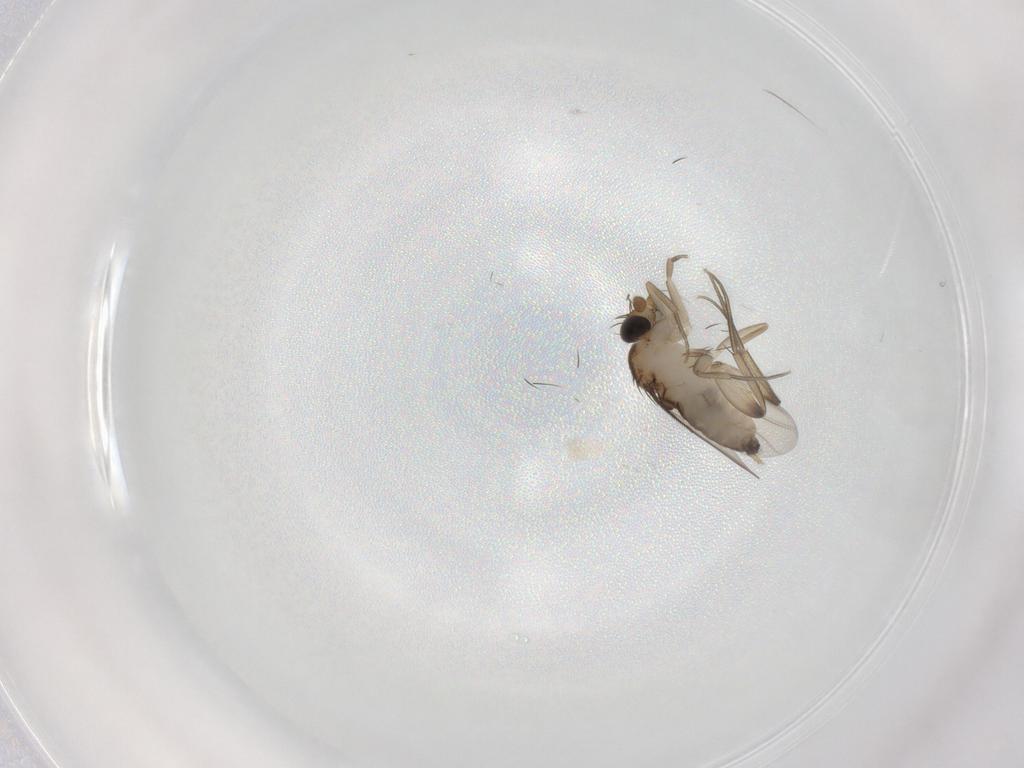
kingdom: Animalia
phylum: Arthropoda
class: Insecta
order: Diptera
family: Phoridae
